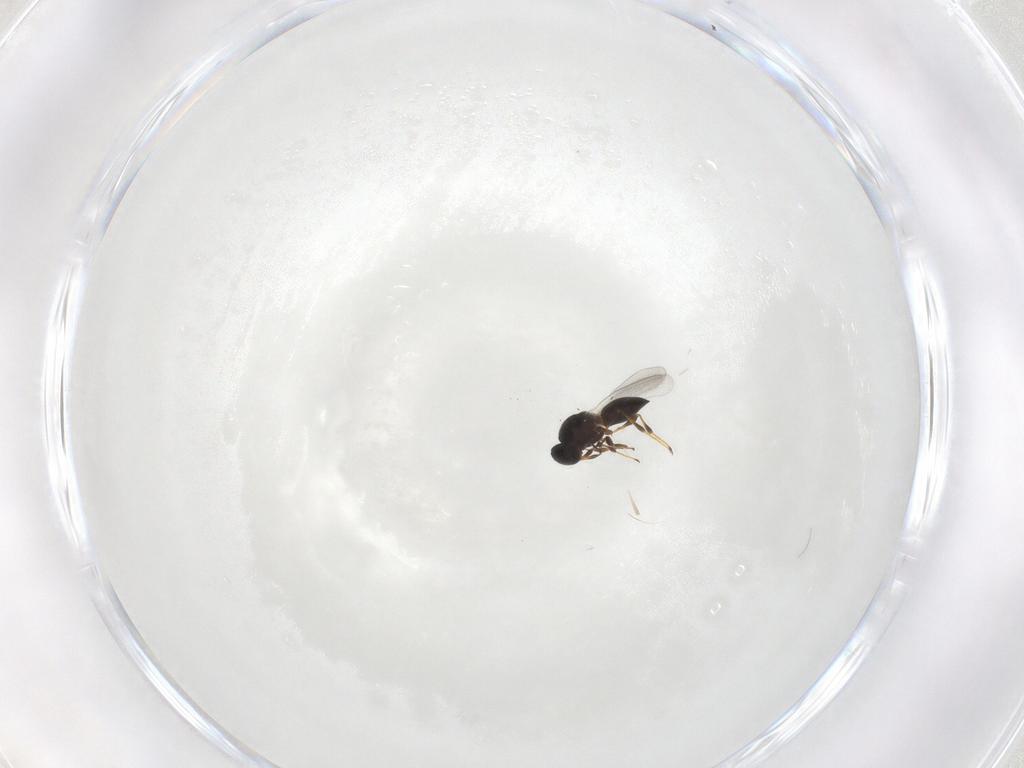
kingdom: Animalia
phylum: Arthropoda
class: Insecta
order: Hymenoptera
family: Platygastridae
